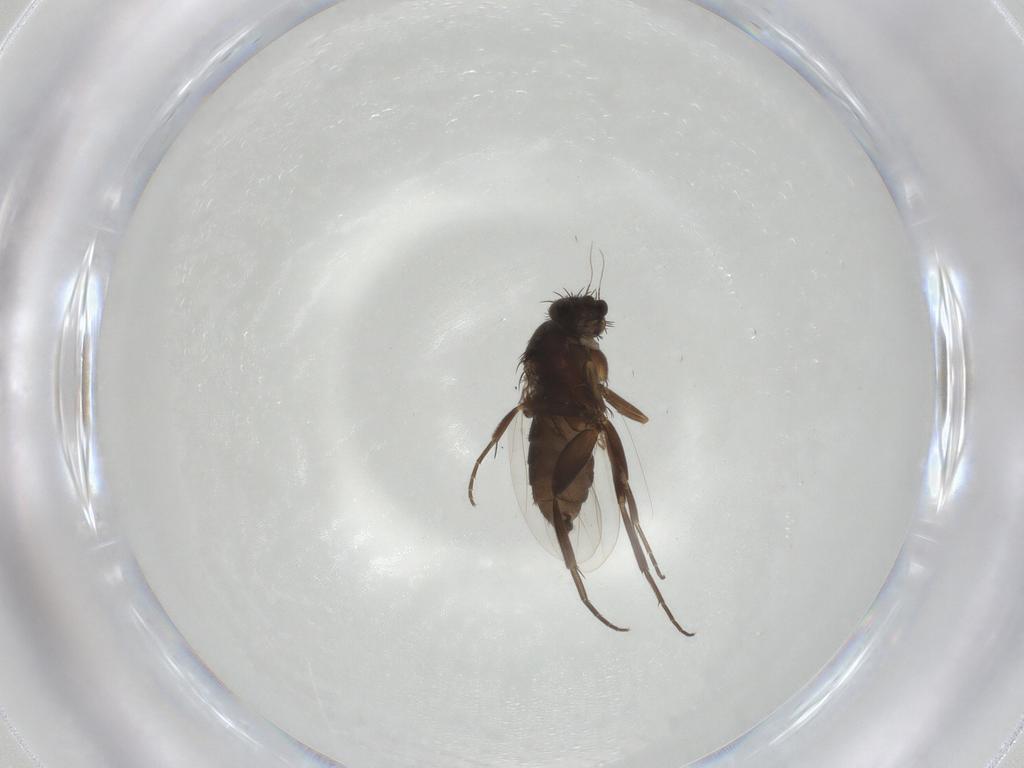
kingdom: Animalia
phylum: Arthropoda
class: Insecta
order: Diptera
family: Phoridae
